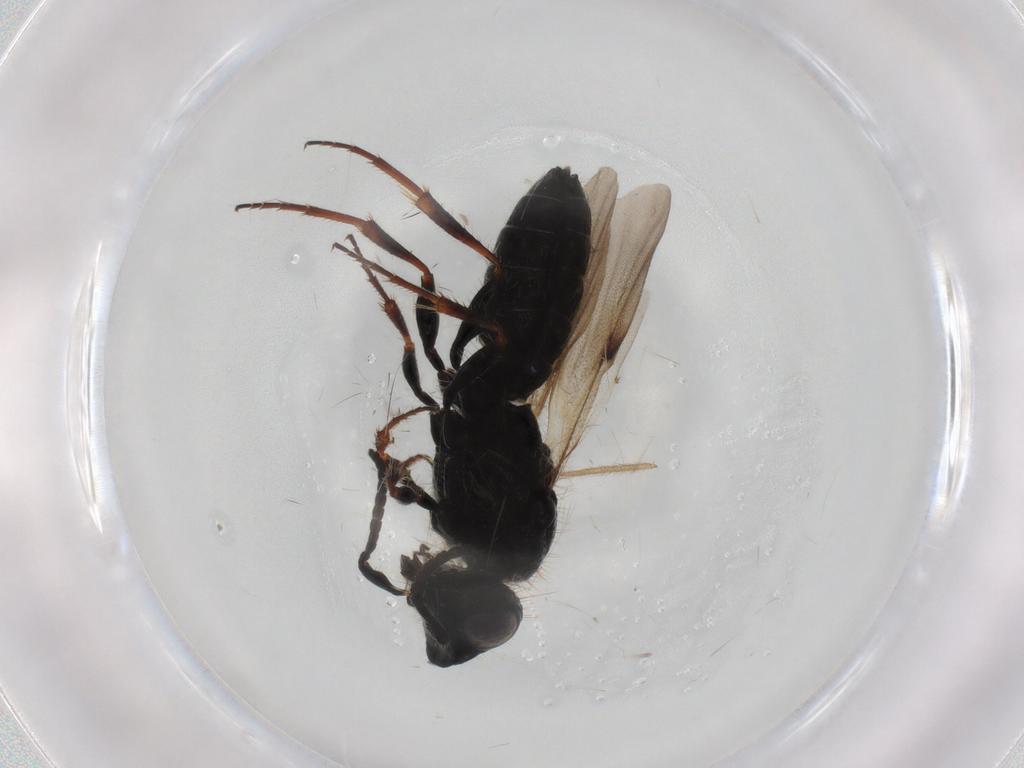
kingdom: Animalia
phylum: Arthropoda
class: Insecta
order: Hymenoptera
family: Scelionidae
